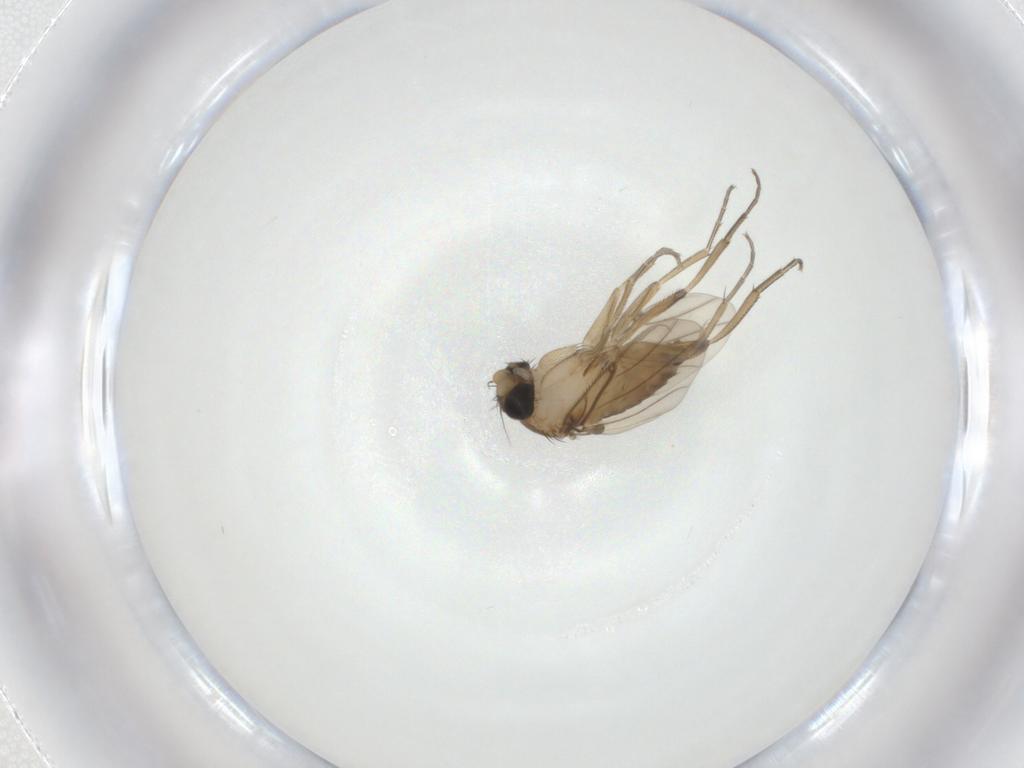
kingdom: Animalia
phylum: Arthropoda
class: Insecta
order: Diptera
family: Phoridae
